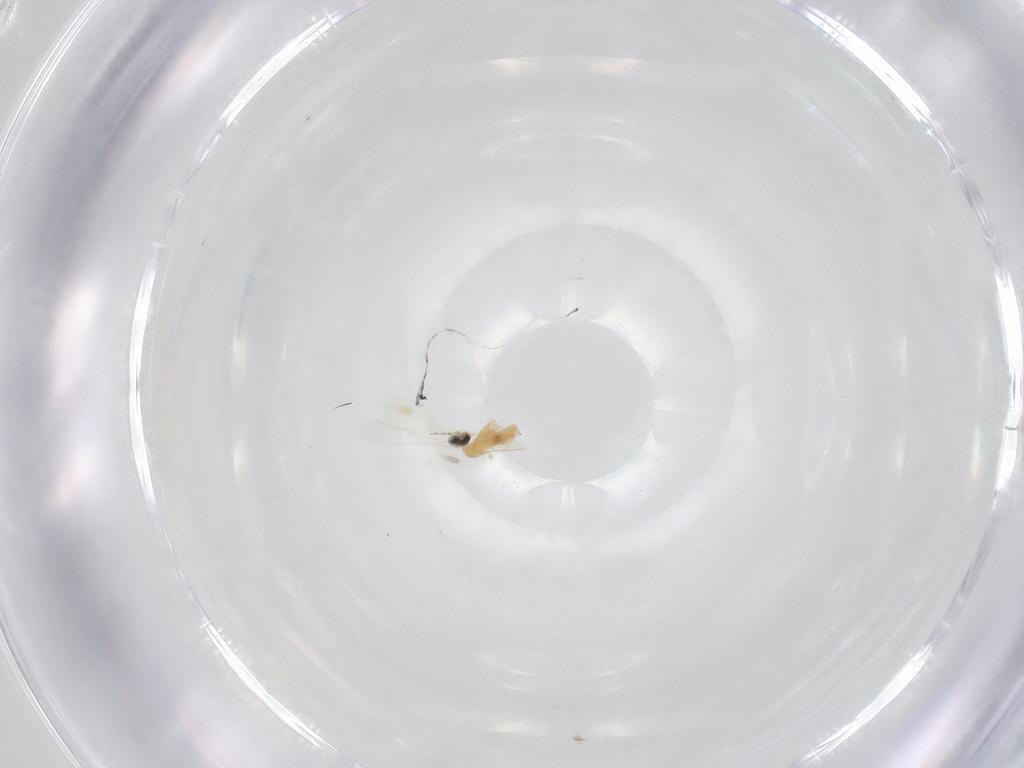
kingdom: Animalia
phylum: Arthropoda
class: Insecta
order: Diptera
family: Cecidomyiidae
